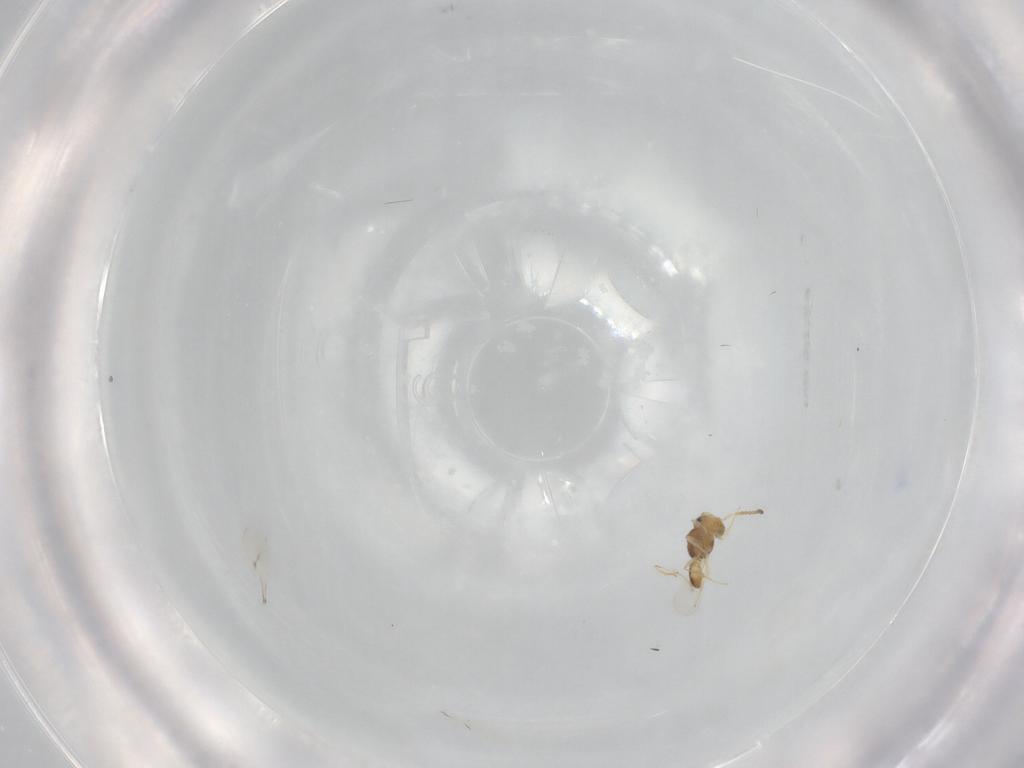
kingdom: Animalia
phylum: Arthropoda
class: Insecta
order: Hymenoptera
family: Scelionidae
